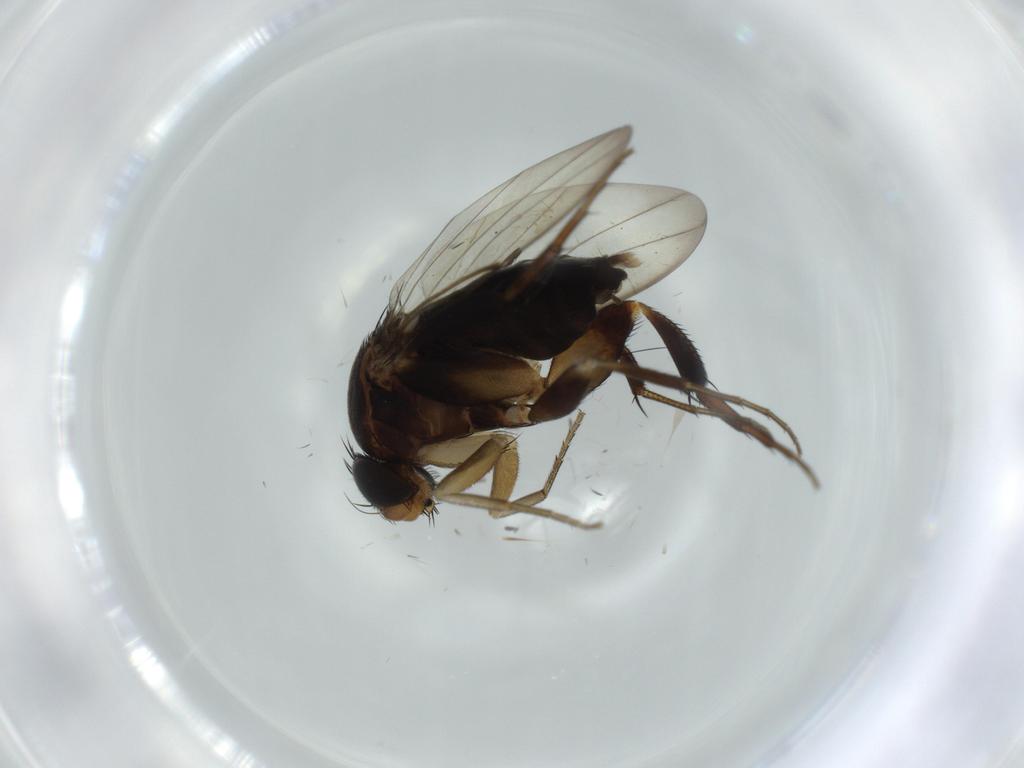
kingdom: Animalia
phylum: Arthropoda
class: Insecta
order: Diptera
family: Phoridae
